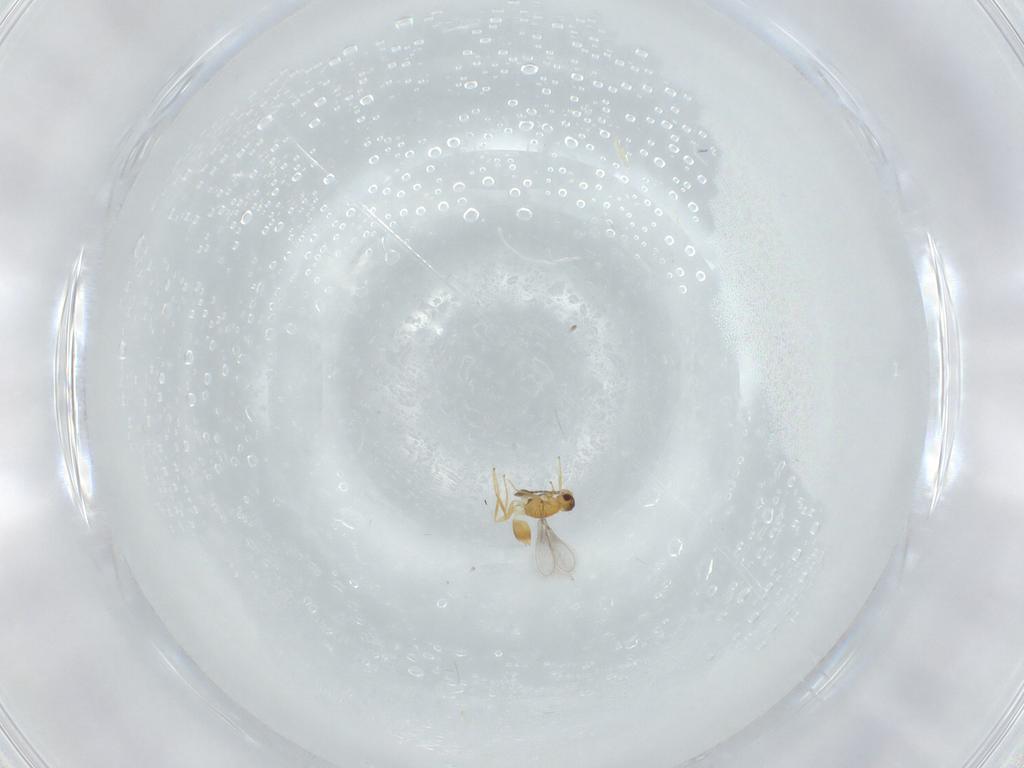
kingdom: Animalia
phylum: Arthropoda
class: Insecta
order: Hymenoptera
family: Mymaridae
